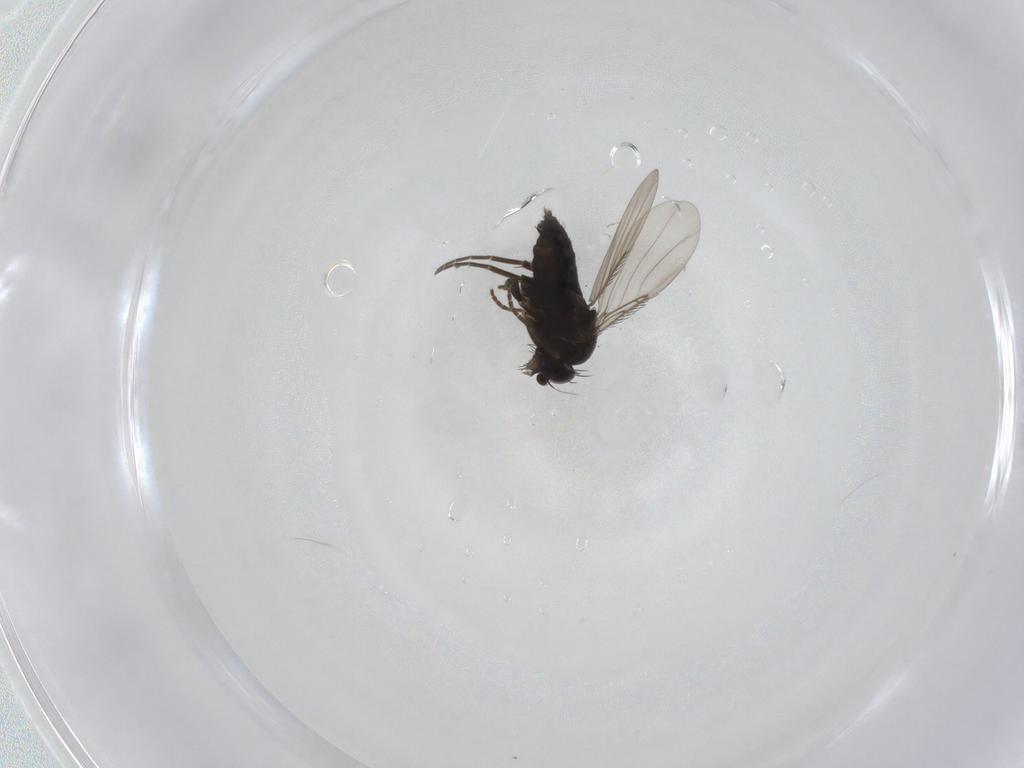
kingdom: Animalia
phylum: Arthropoda
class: Insecta
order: Diptera
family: Phoridae
